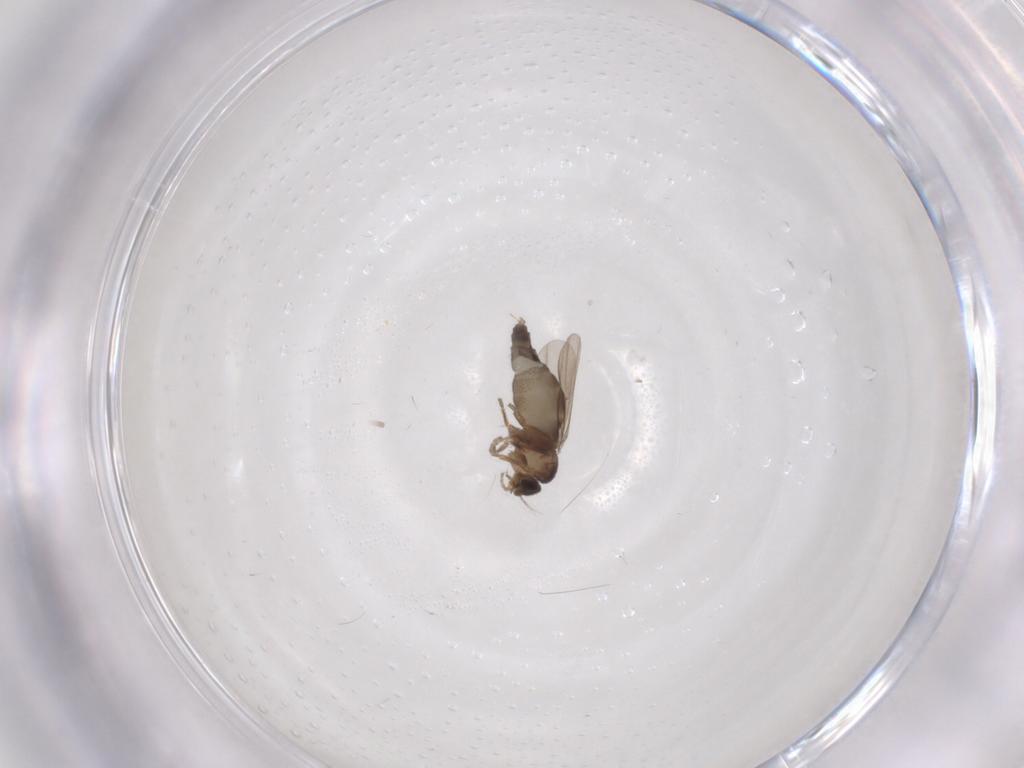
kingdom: Animalia
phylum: Arthropoda
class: Insecta
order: Diptera
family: Phoridae
